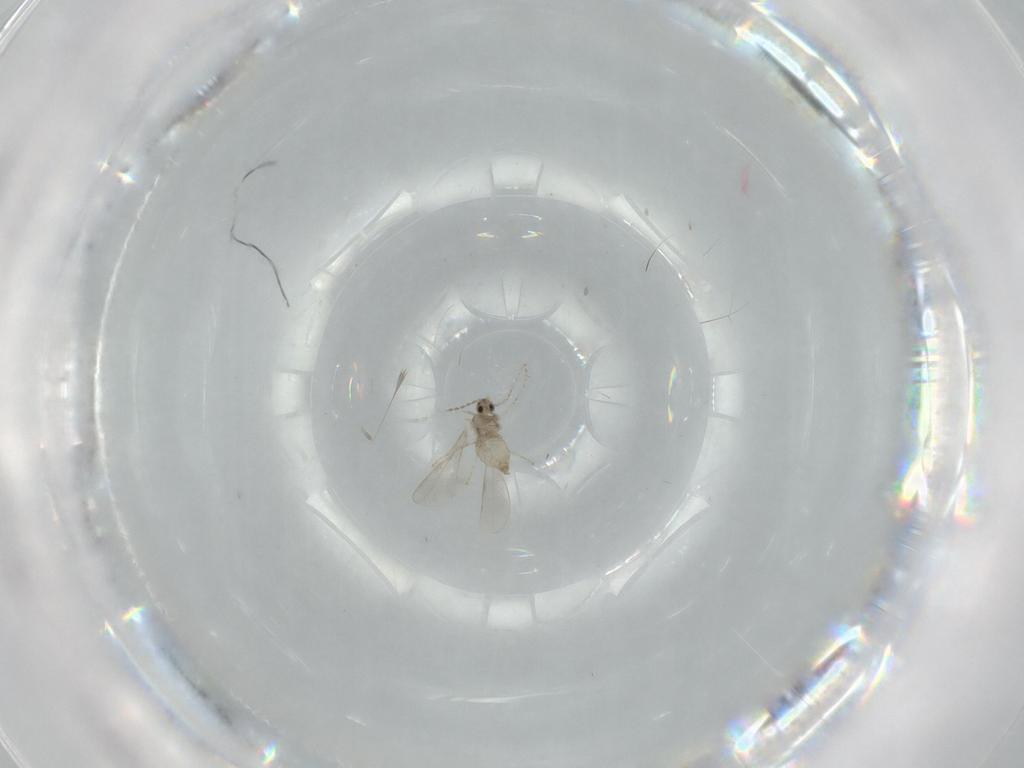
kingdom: Animalia
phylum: Arthropoda
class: Insecta
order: Diptera
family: Cecidomyiidae
